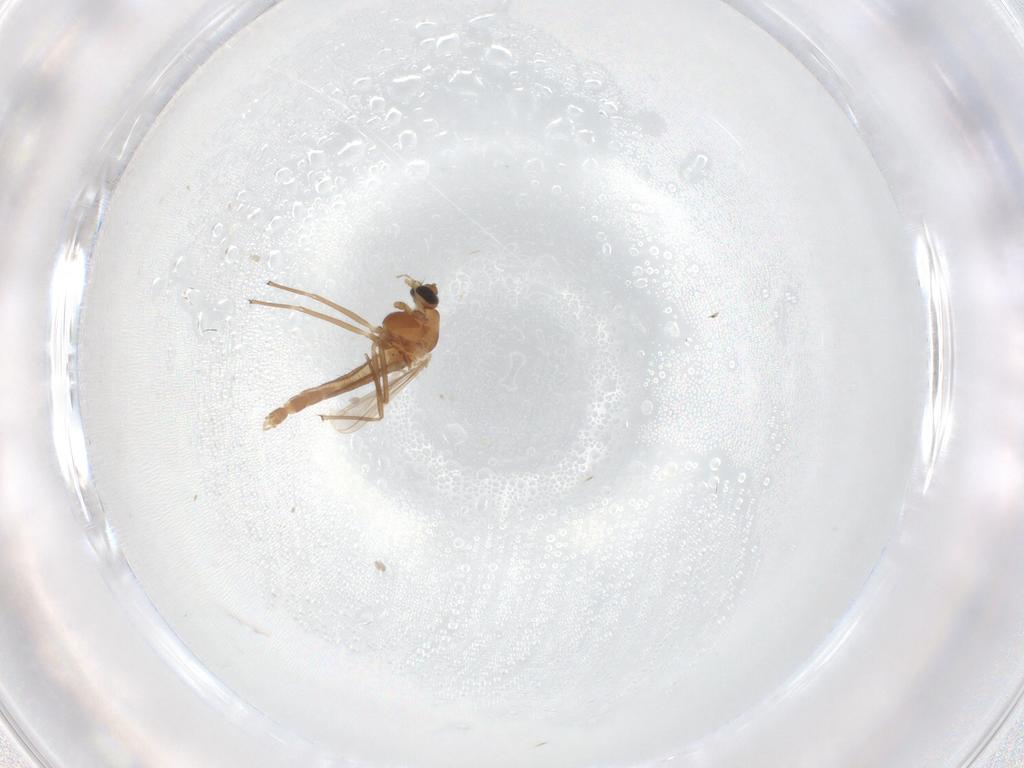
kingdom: Animalia
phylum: Arthropoda
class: Insecta
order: Diptera
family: Chironomidae
